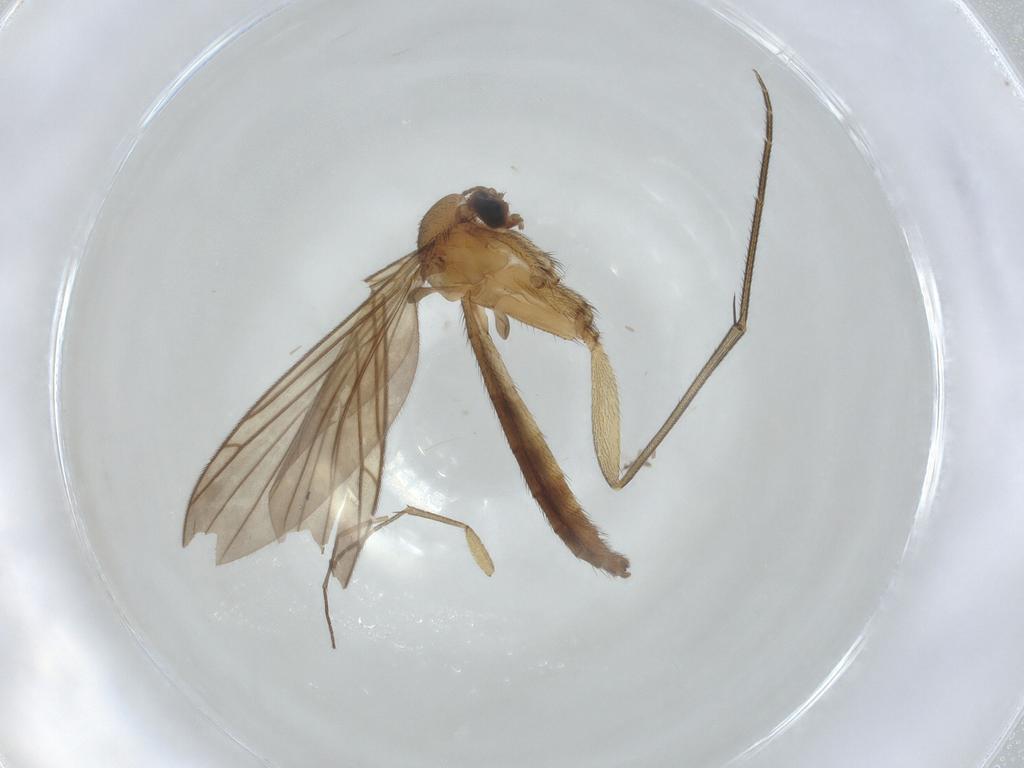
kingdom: Animalia
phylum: Arthropoda
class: Insecta
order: Diptera
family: Keroplatidae
